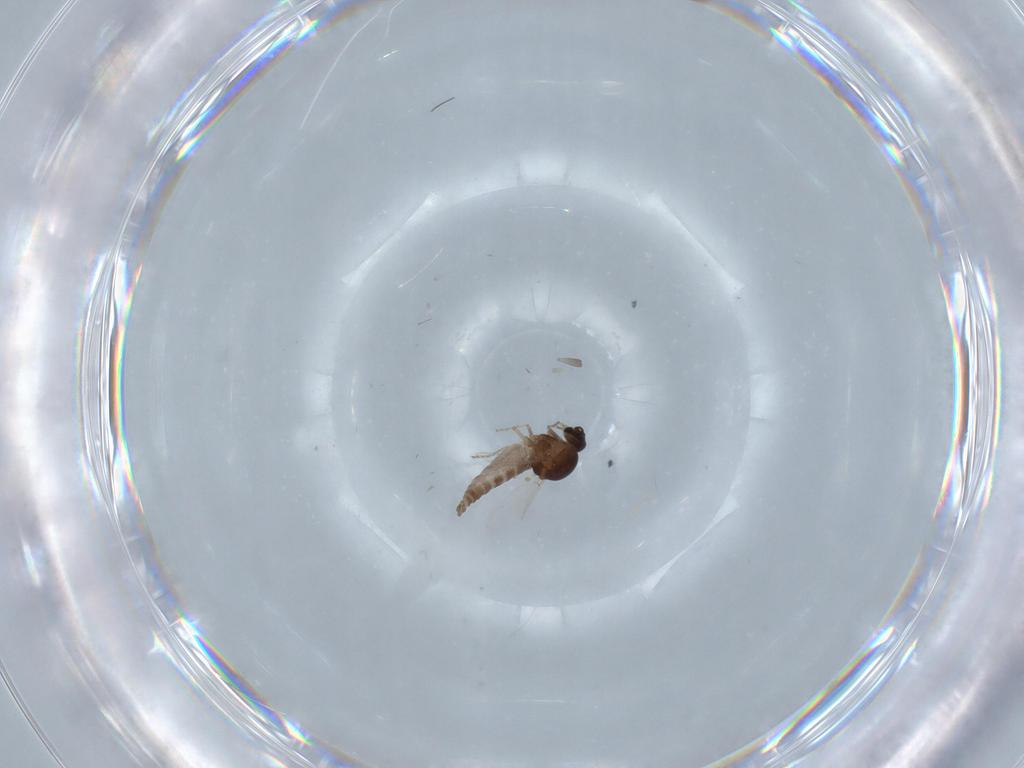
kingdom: Animalia
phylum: Arthropoda
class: Insecta
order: Diptera
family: Ceratopogonidae
